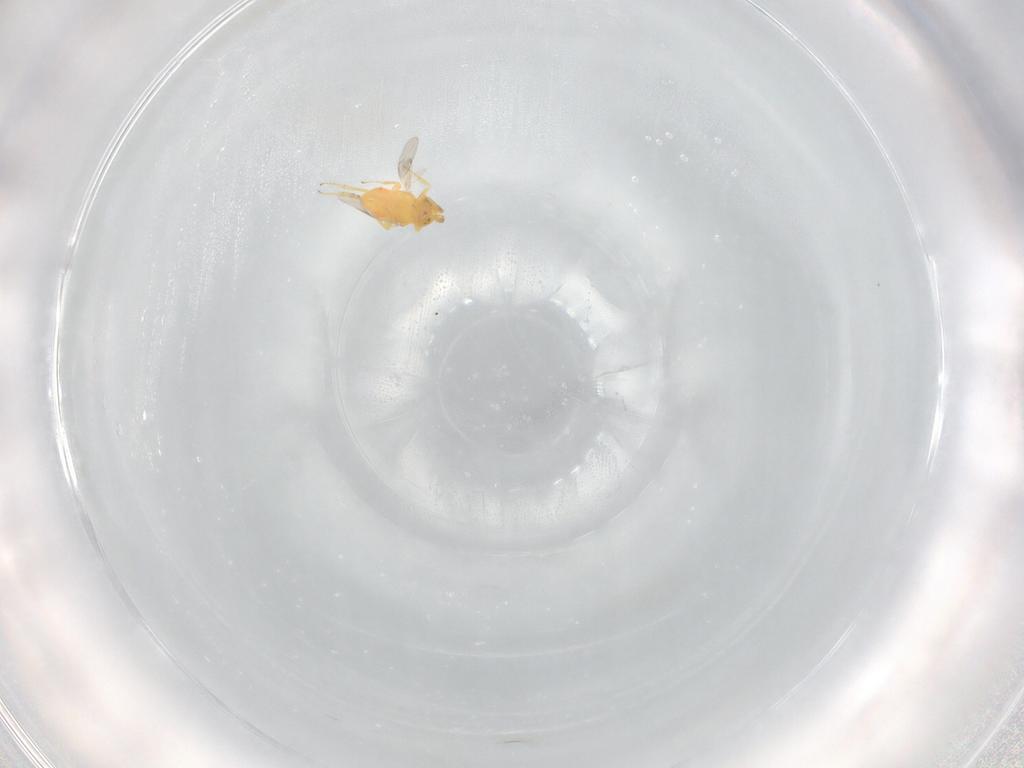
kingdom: Animalia
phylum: Arthropoda
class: Insecta
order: Hymenoptera
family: Encyrtidae
